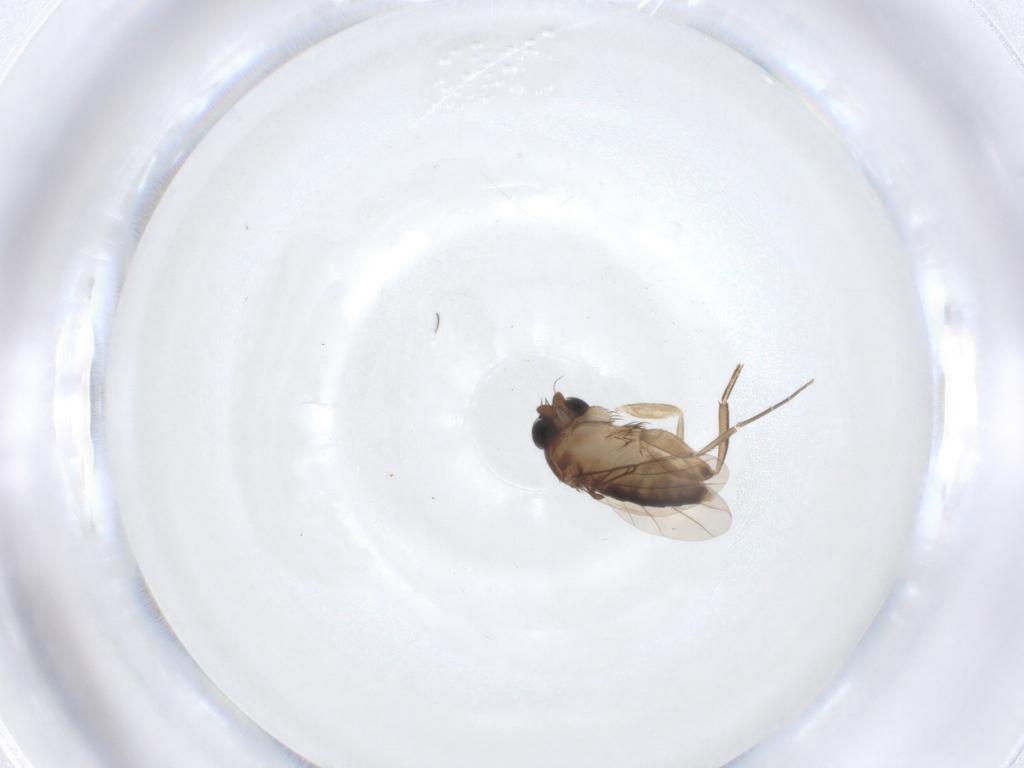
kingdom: Animalia
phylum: Arthropoda
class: Insecta
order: Diptera
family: Phoridae
